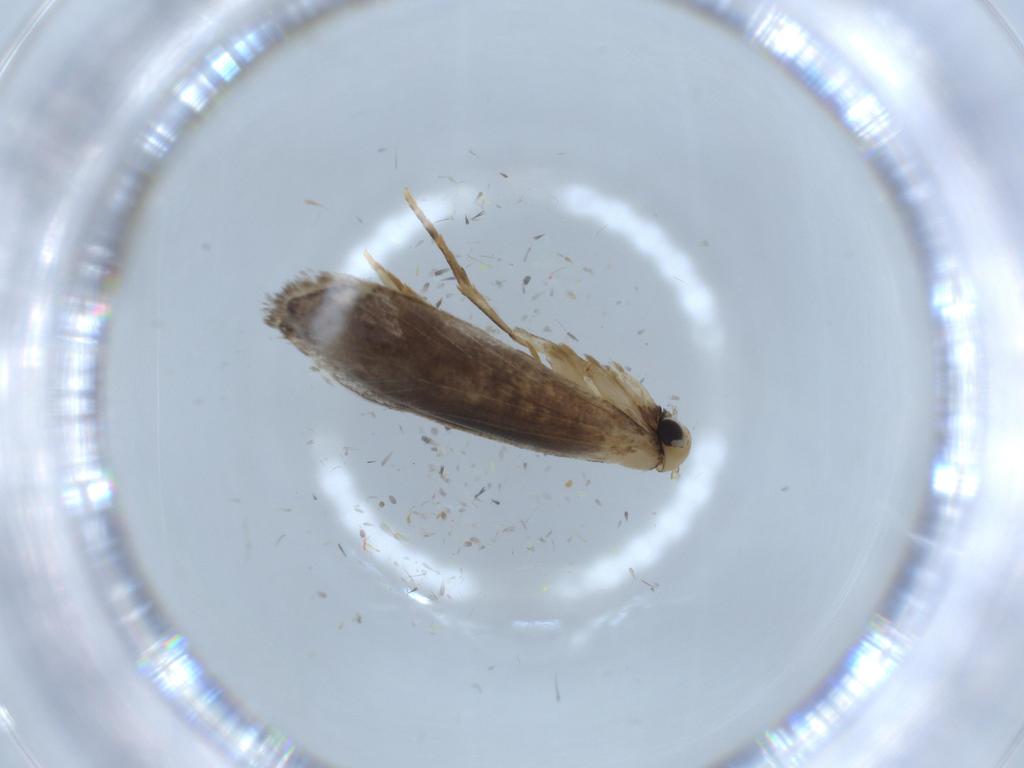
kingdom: Animalia
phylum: Arthropoda
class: Insecta
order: Lepidoptera
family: Tineidae
